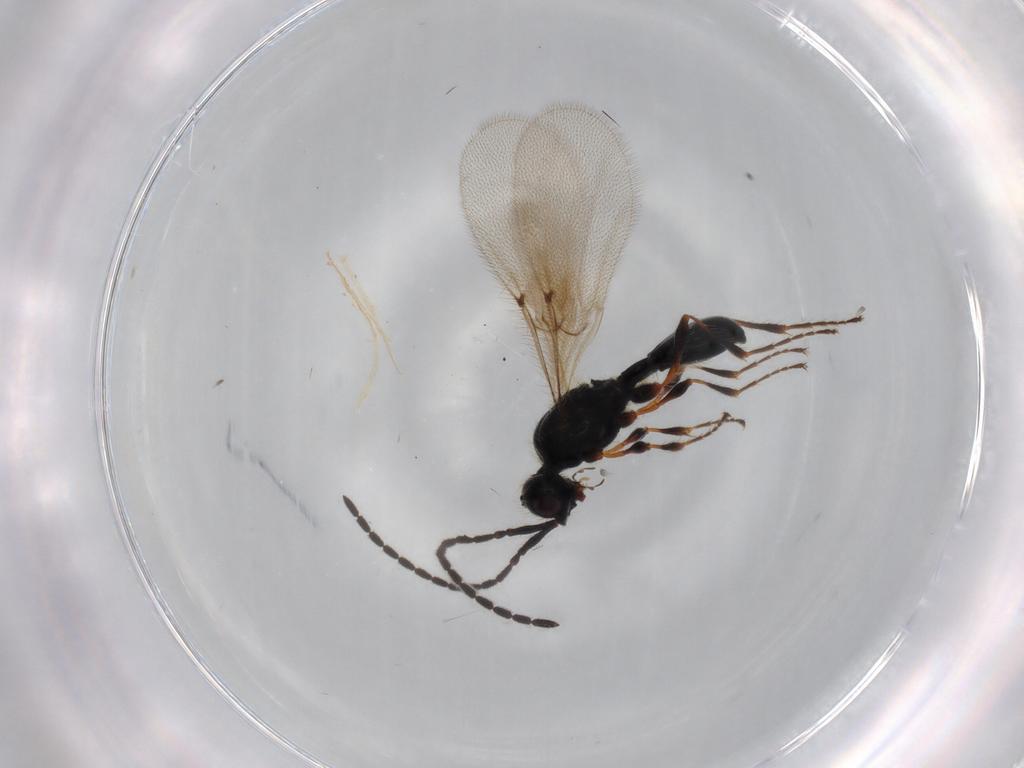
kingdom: Animalia
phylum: Arthropoda
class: Insecta
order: Hymenoptera
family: Diapriidae
